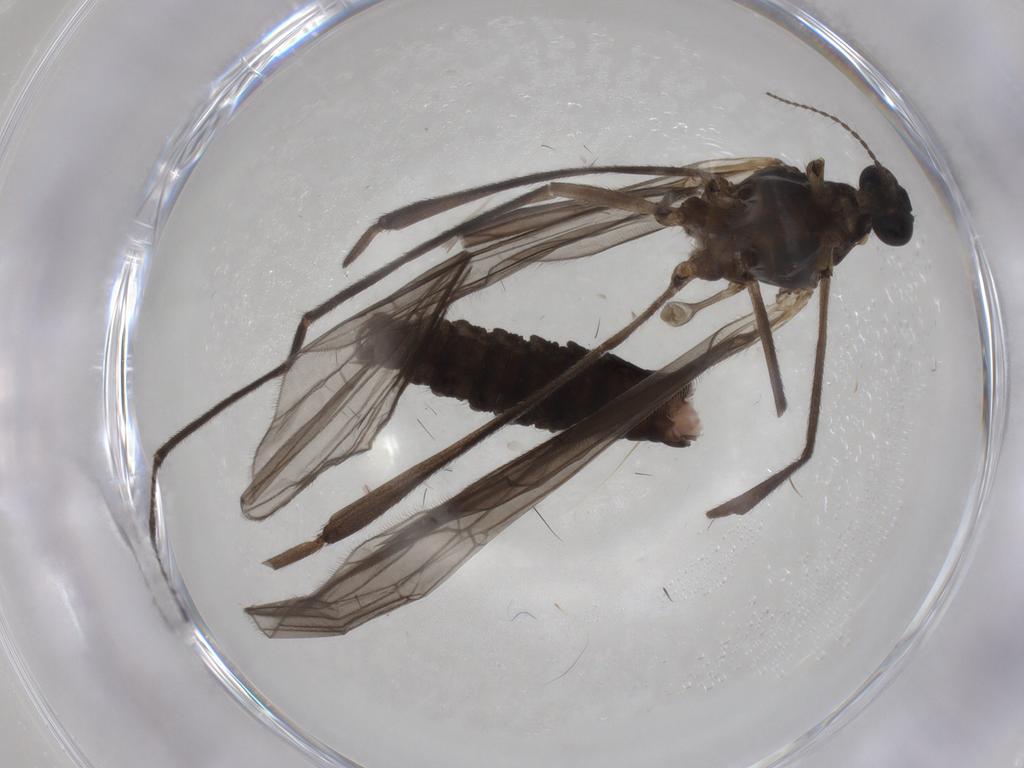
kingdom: Animalia
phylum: Arthropoda
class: Insecta
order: Diptera
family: Limoniidae
